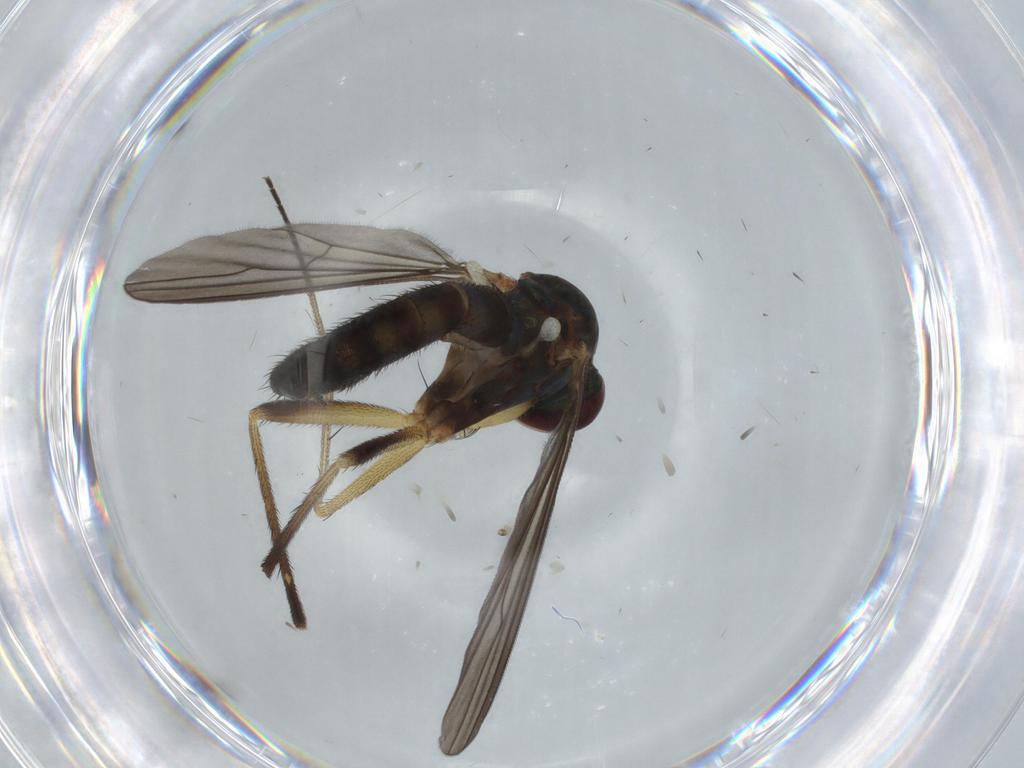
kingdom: Animalia
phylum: Arthropoda
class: Insecta
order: Diptera
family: Dolichopodidae
